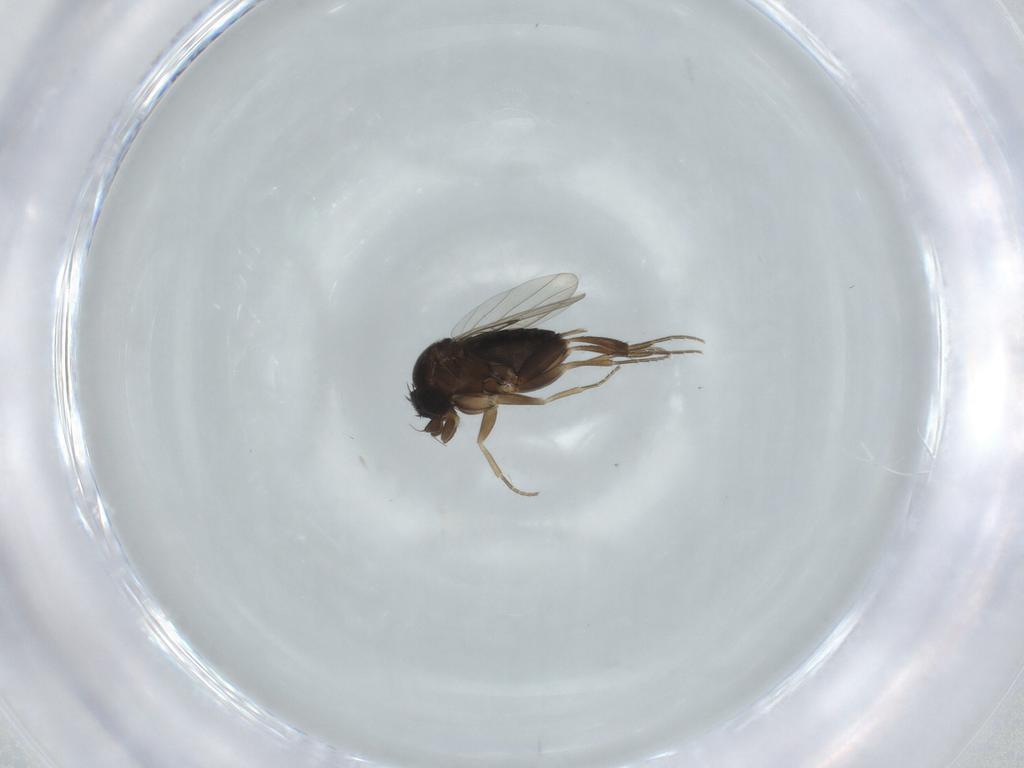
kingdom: Animalia
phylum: Arthropoda
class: Insecta
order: Diptera
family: Phoridae
